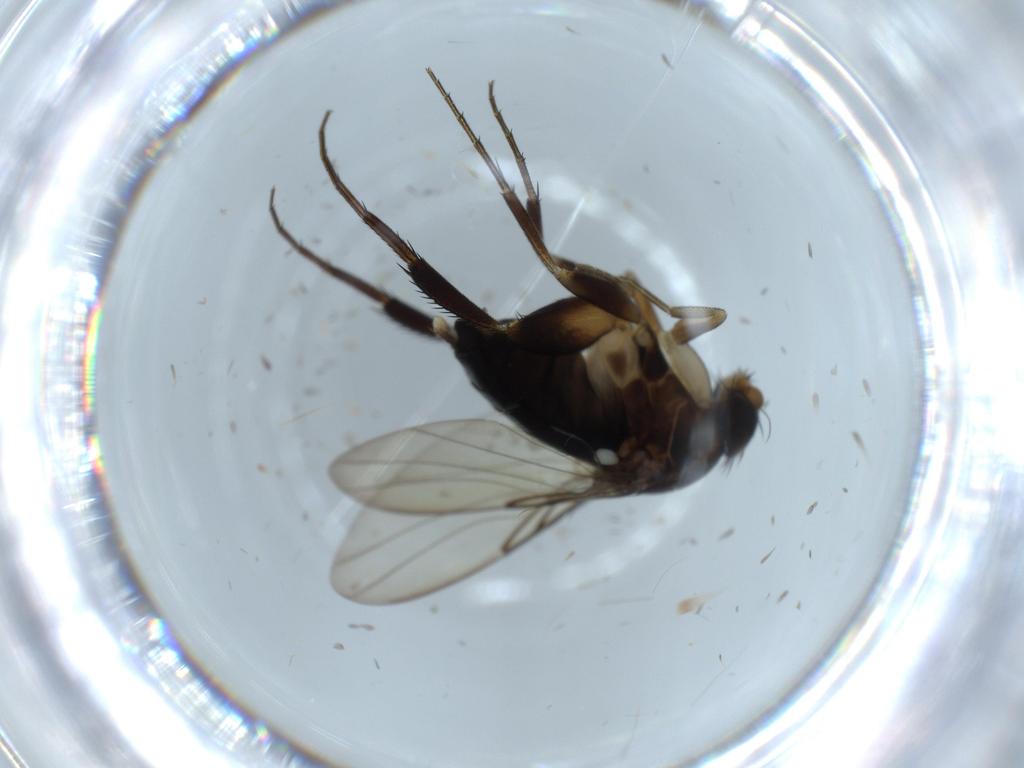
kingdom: Animalia
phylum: Arthropoda
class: Insecta
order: Diptera
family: Phoridae
